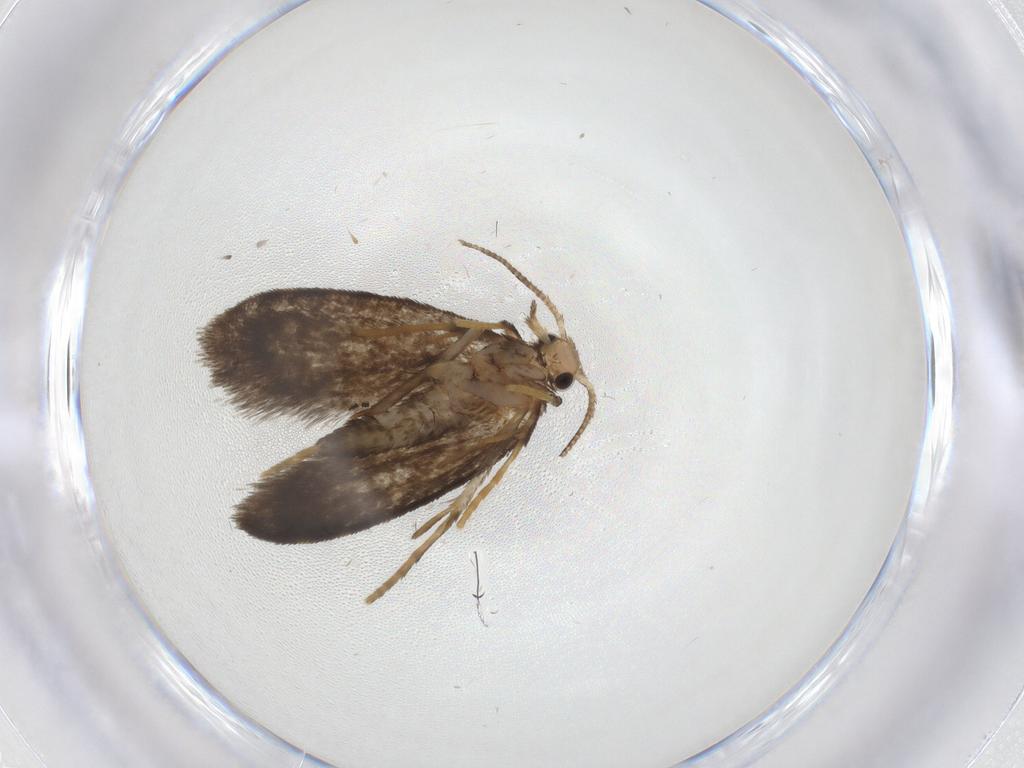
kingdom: Animalia
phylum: Arthropoda
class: Insecta
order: Lepidoptera
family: Psychidae
